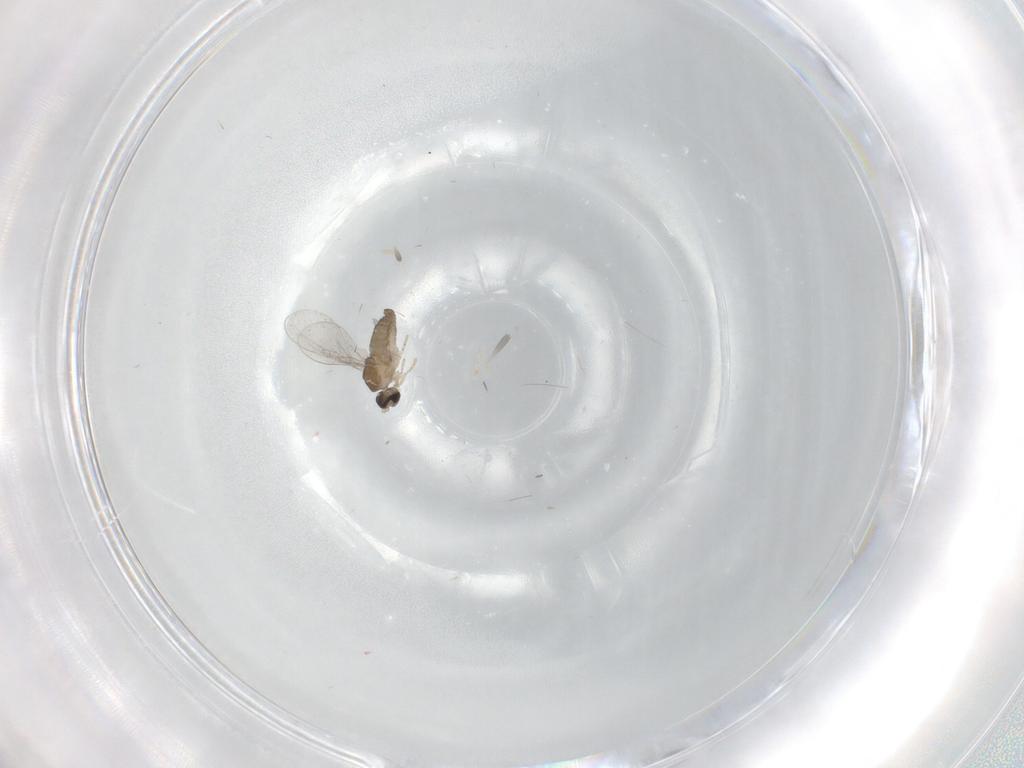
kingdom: Animalia
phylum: Arthropoda
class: Insecta
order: Diptera
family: Cecidomyiidae
